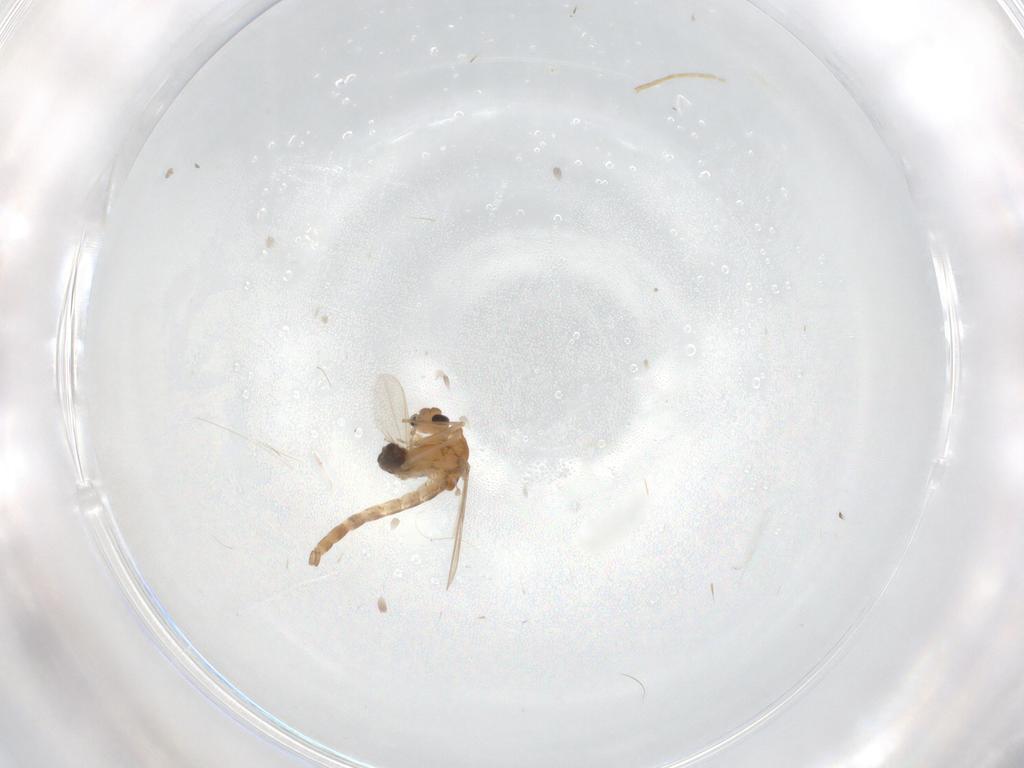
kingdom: Animalia
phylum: Arthropoda
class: Insecta
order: Diptera
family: Chironomidae
